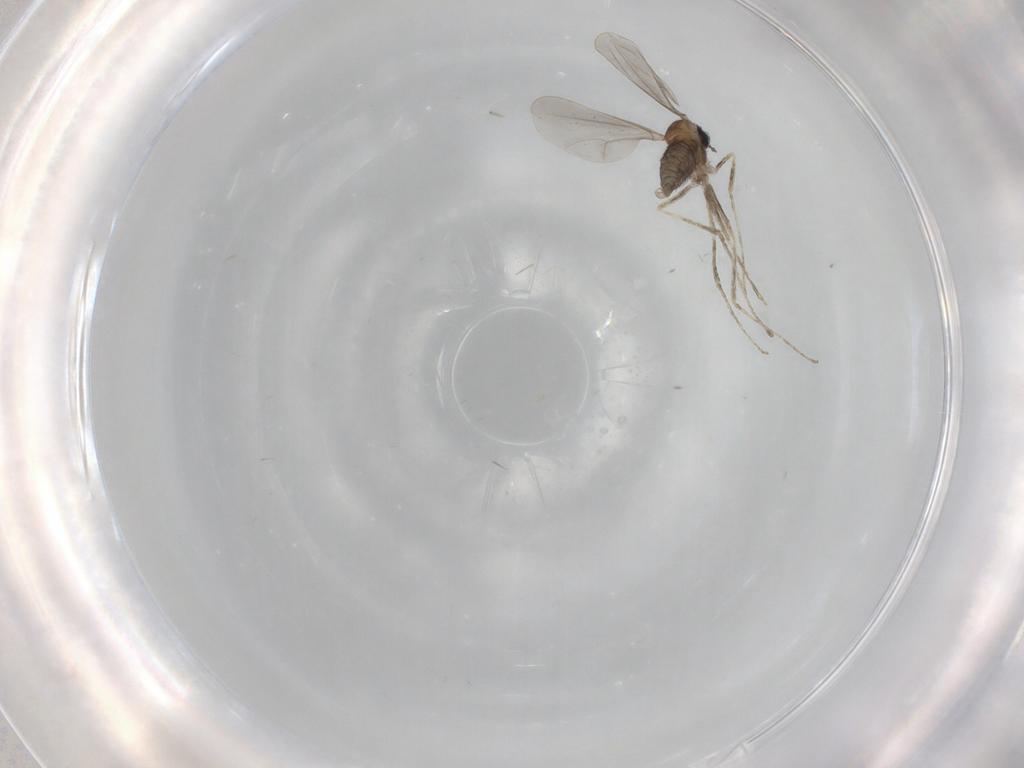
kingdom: Animalia
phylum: Arthropoda
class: Insecta
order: Diptera
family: Cecidomyiidae
